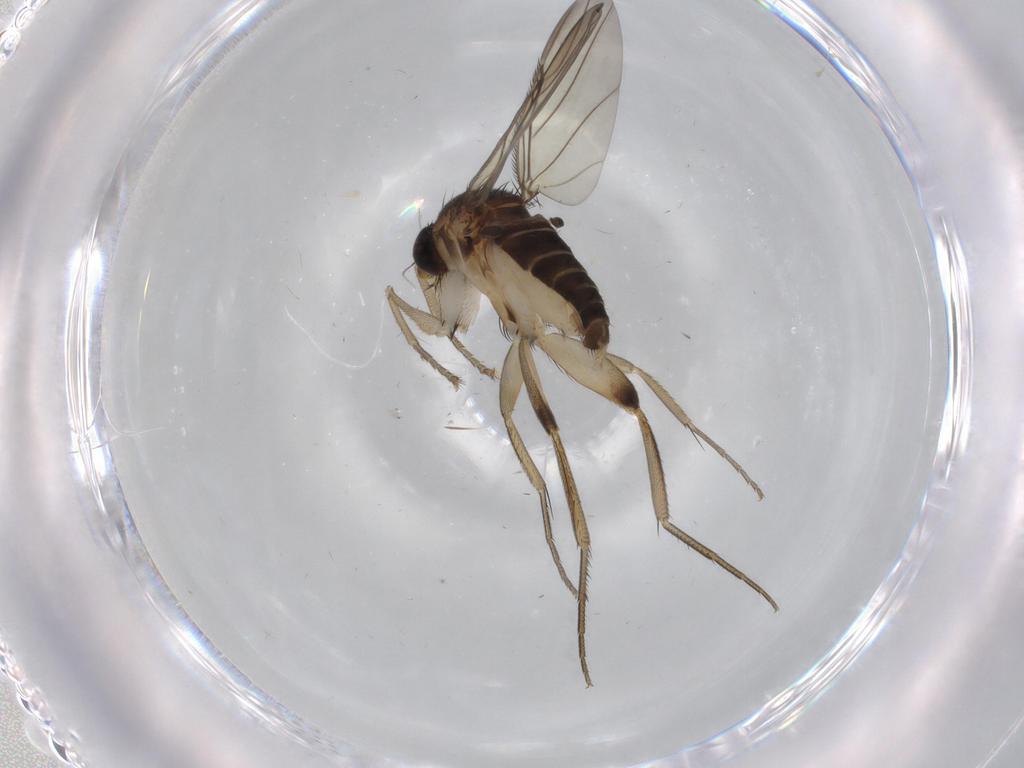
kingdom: Animalia
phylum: Arthropoda
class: Insecta
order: Diptera
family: Phoridae
